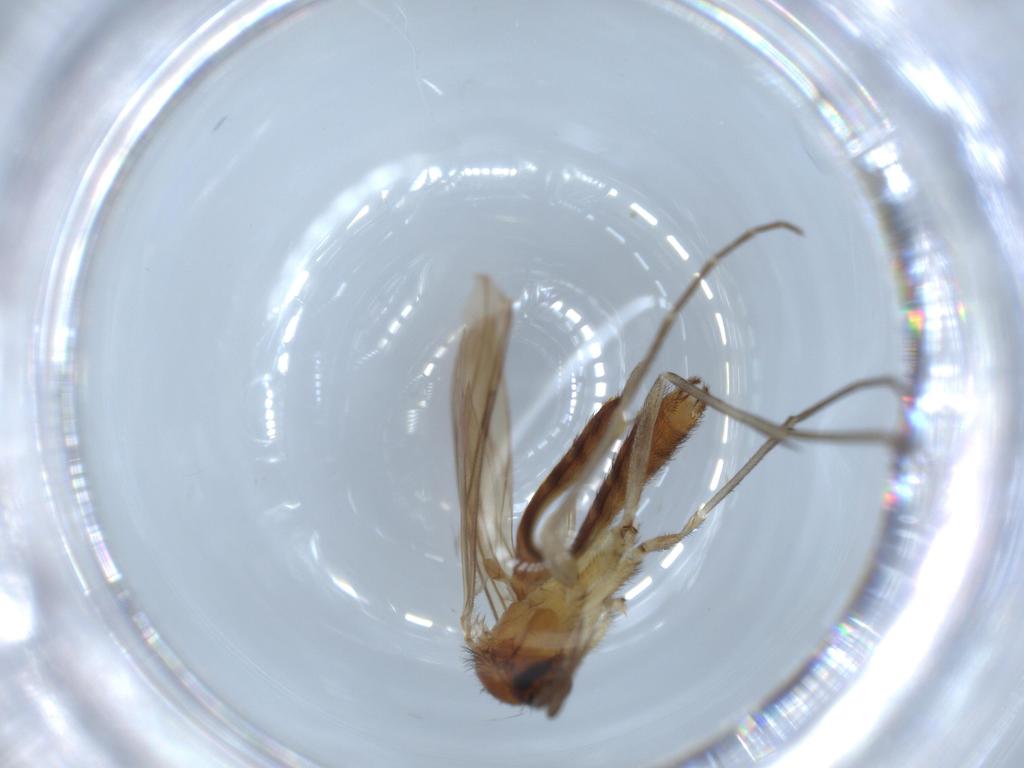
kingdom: Animalia
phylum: Arthropoda
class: Insecta
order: Diptera
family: Keroplatidae
